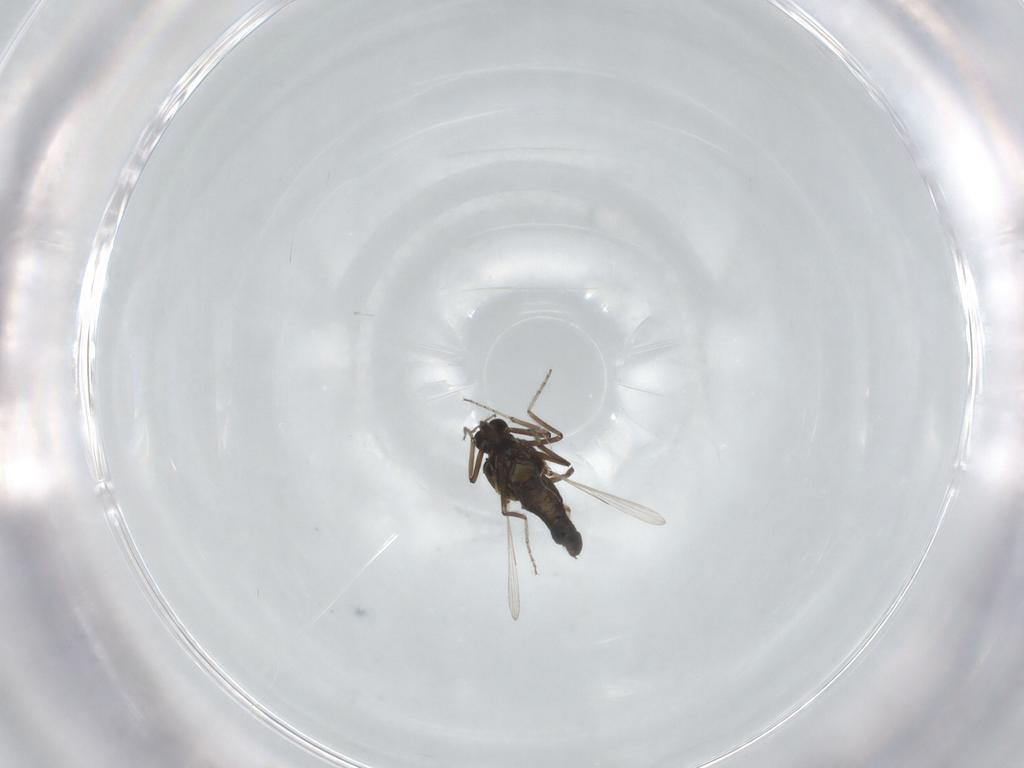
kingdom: Animalia
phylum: Arthropoda
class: Insecta
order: Diptera
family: Ceratopogonidae
